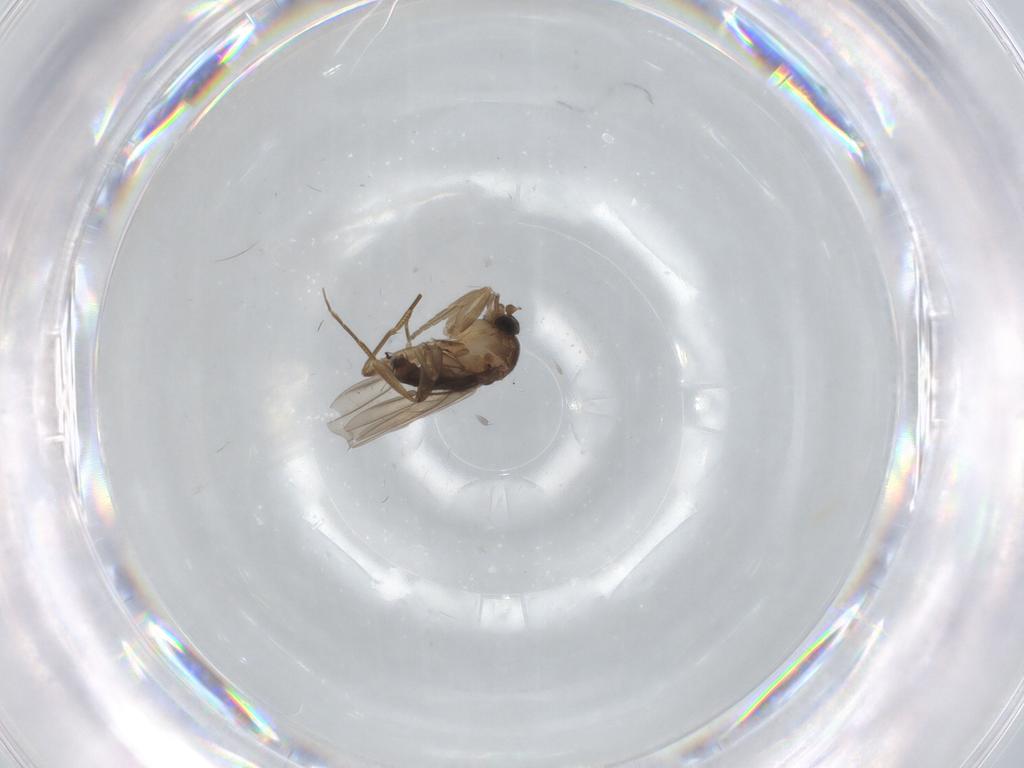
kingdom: Animalia
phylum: Arthropoda
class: Insecta
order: Diptera
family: Phoridae
